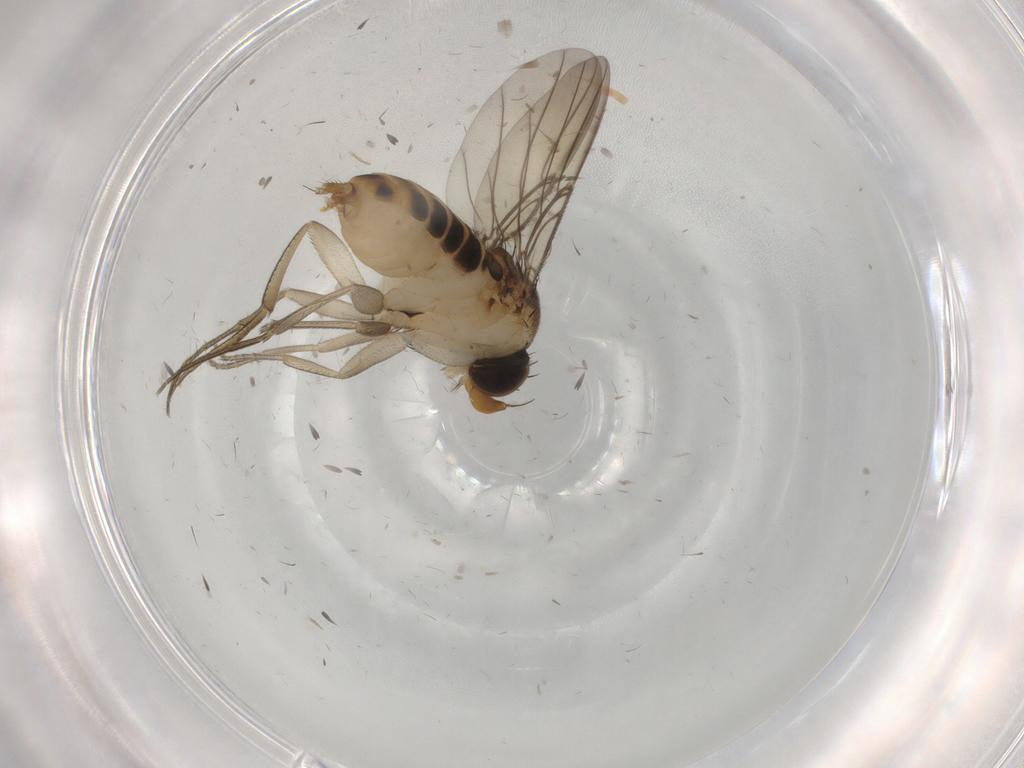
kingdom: Animalia
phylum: Arthropoda
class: Insecta
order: Diptera
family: Phoridae
